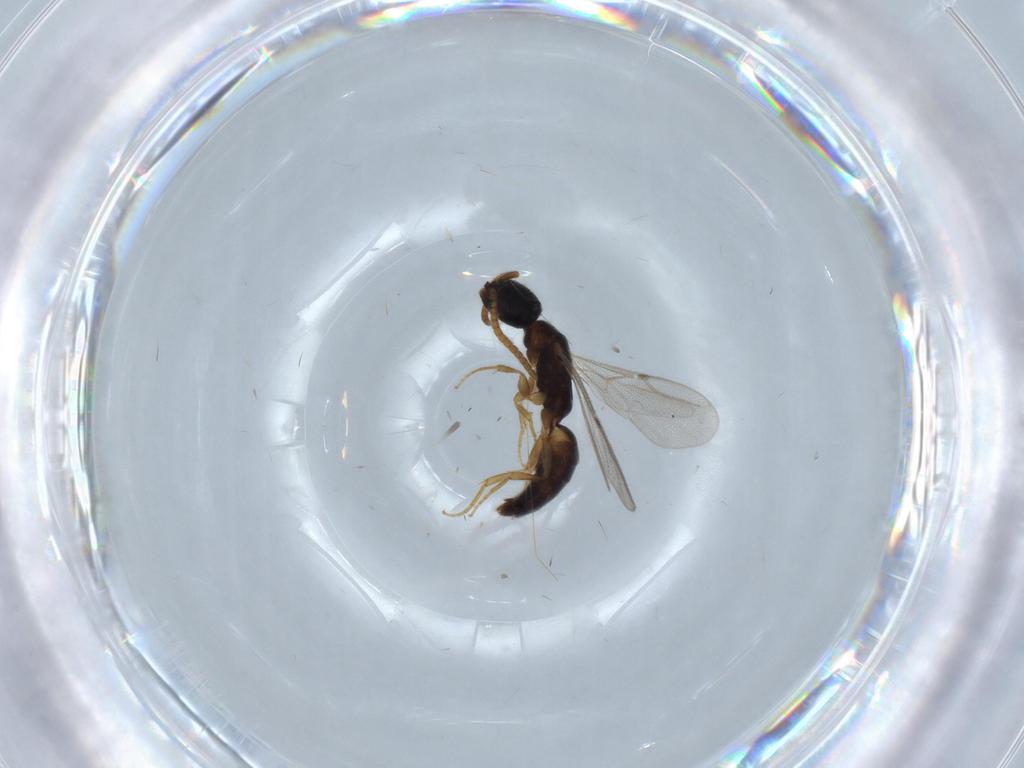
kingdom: Animalia
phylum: Arthropoda
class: Insecta
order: Hymenoptera
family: Bethylidae
